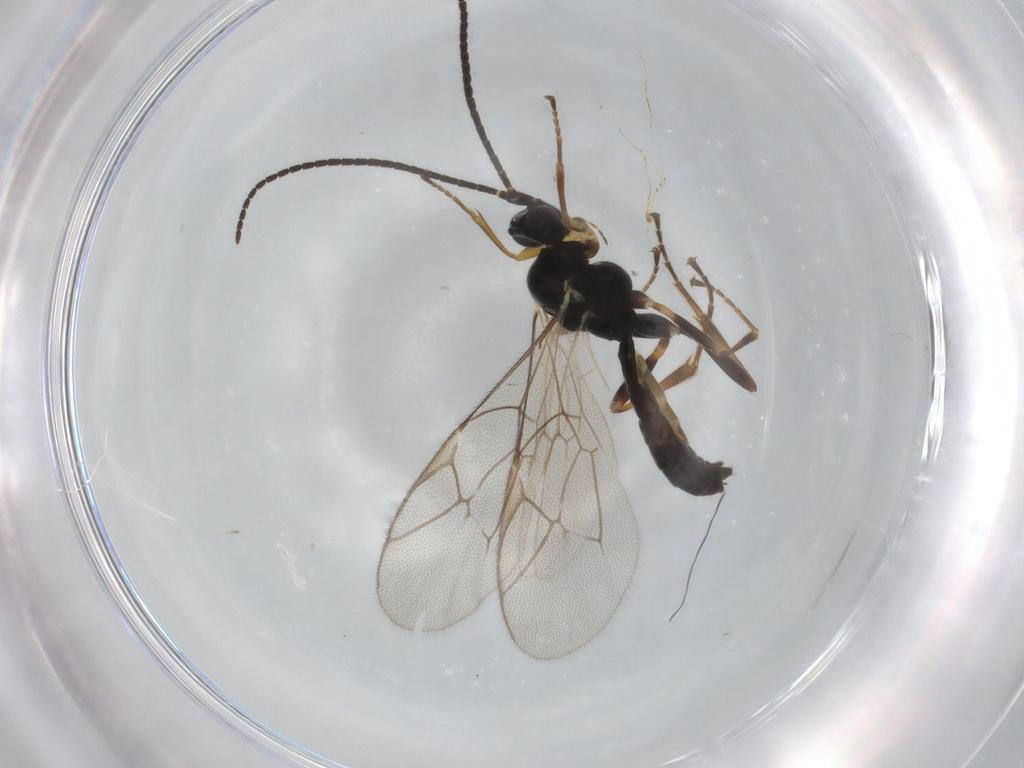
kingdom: Animalia
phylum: Arthropoda
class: Insecta
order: Hymenoptera
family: Ichneumonidae
